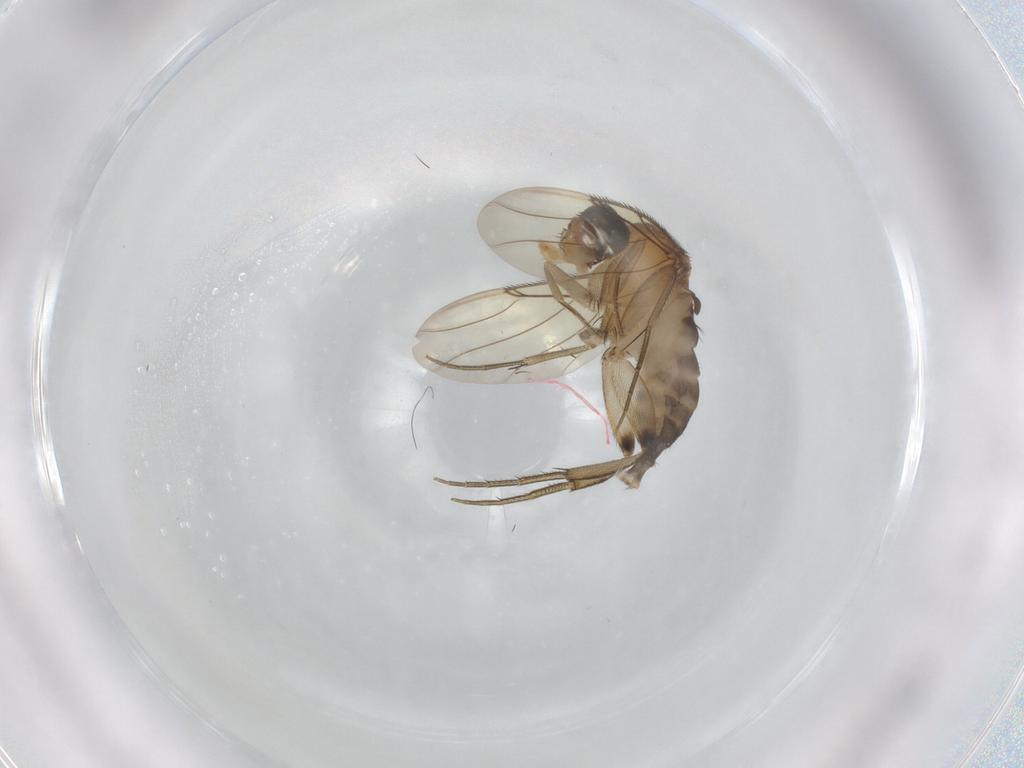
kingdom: Animalia
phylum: Arthropoda
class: Insecta
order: Diptera
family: Phoridae
